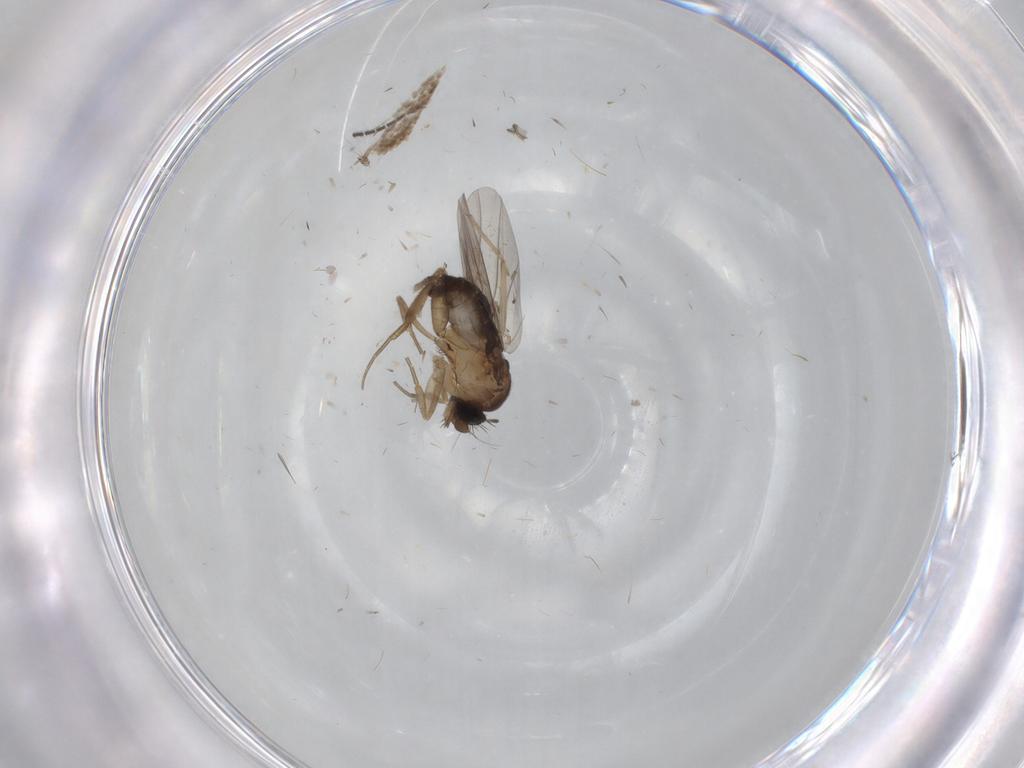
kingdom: Animalia
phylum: Arthropoda
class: Insecta
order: Diptera
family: Phoridae
